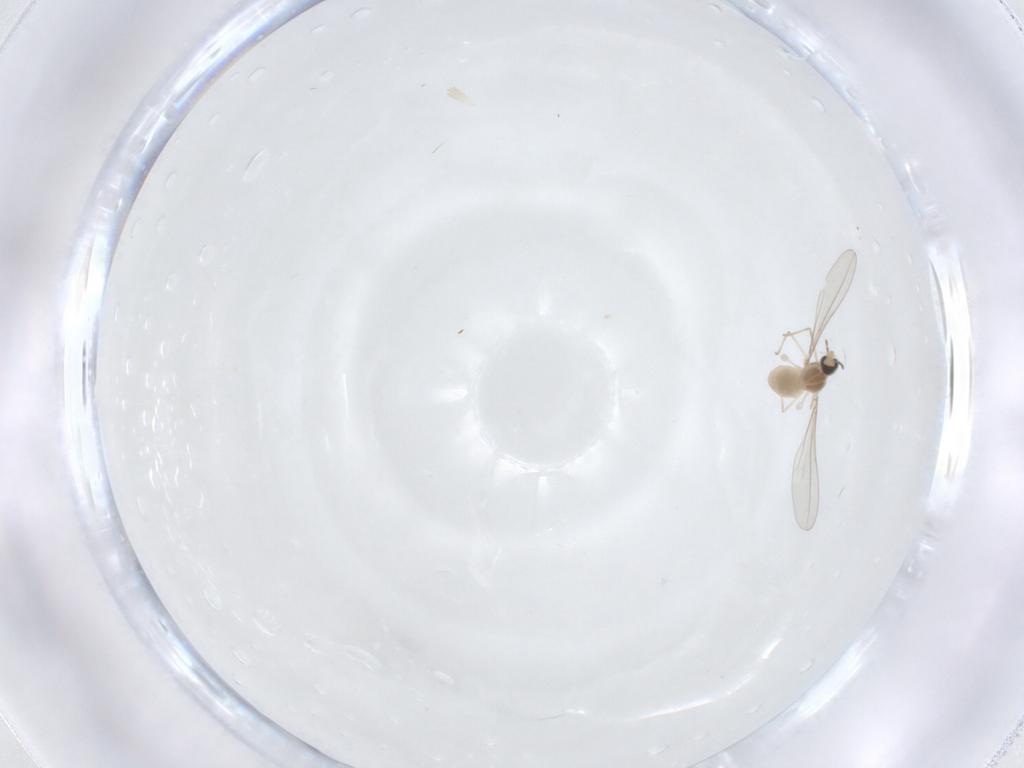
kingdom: Animalia
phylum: Arthropoda
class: Insecta
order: Diptera
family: Cecidomyiidae
